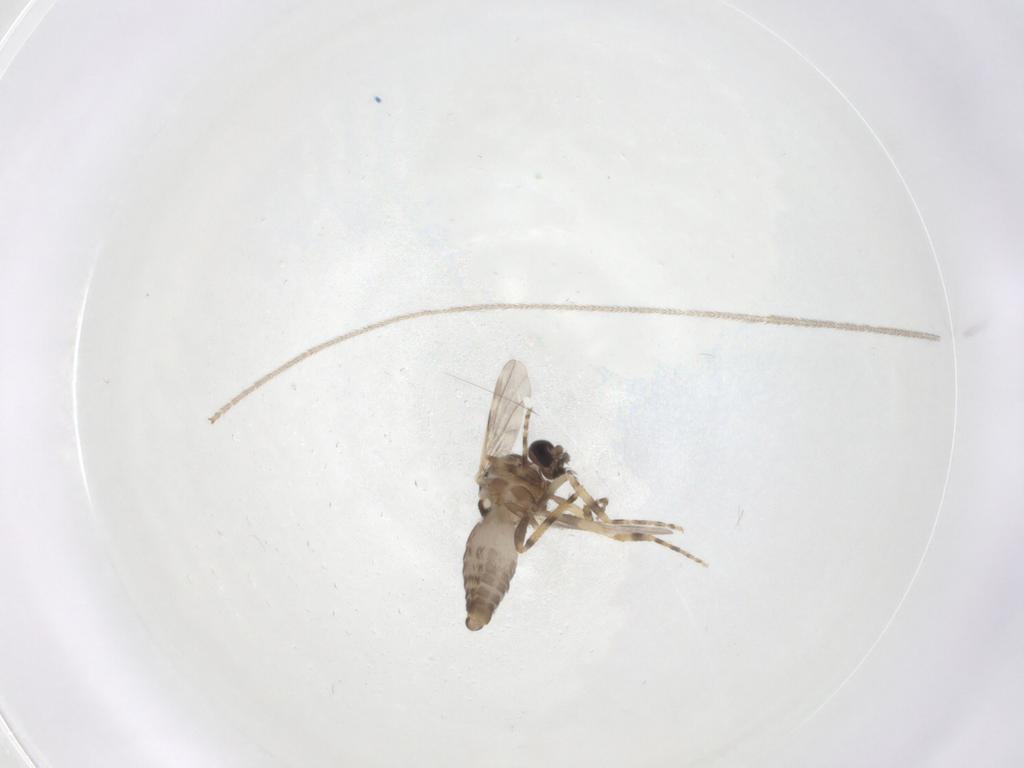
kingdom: Animalia
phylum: Arthropoda
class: Insecta
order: Diptera
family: Ceratopogonidae
